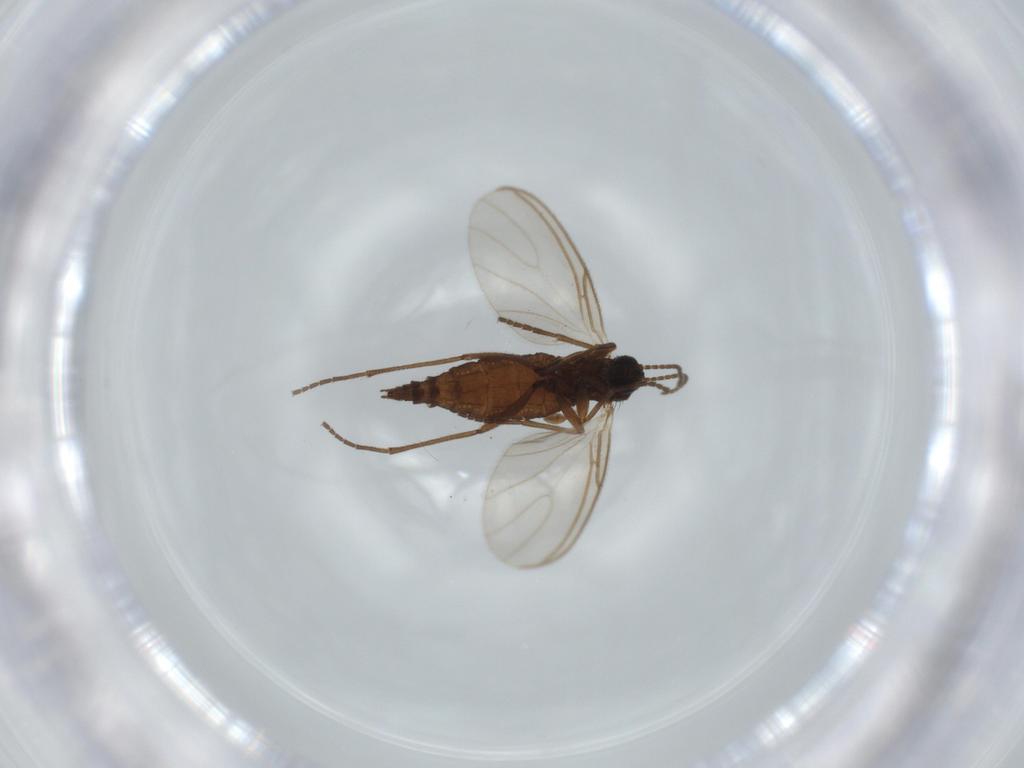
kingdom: Animalia
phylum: Arthropoda
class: Insecta
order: Diptera
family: Sciaridae
